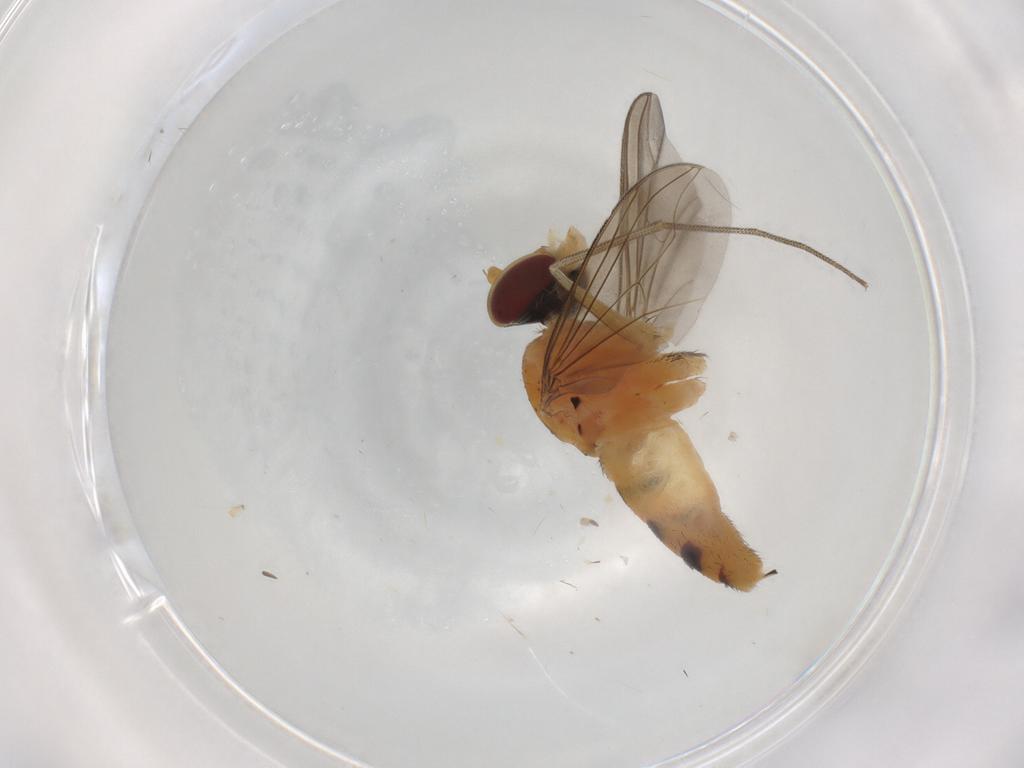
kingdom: Animalia
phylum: Arthropoda
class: Insecta
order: Diptera
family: Dolichopodidae
